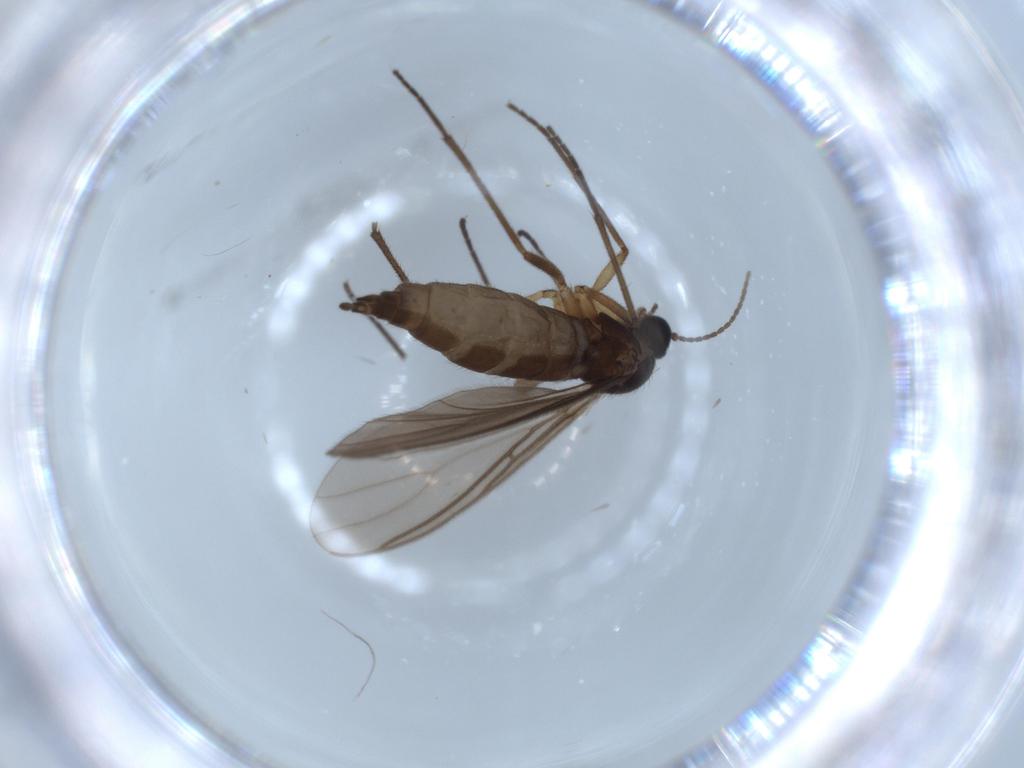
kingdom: Animalia
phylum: Arthropoda
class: Insecta
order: Diptera
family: Sciaridae
